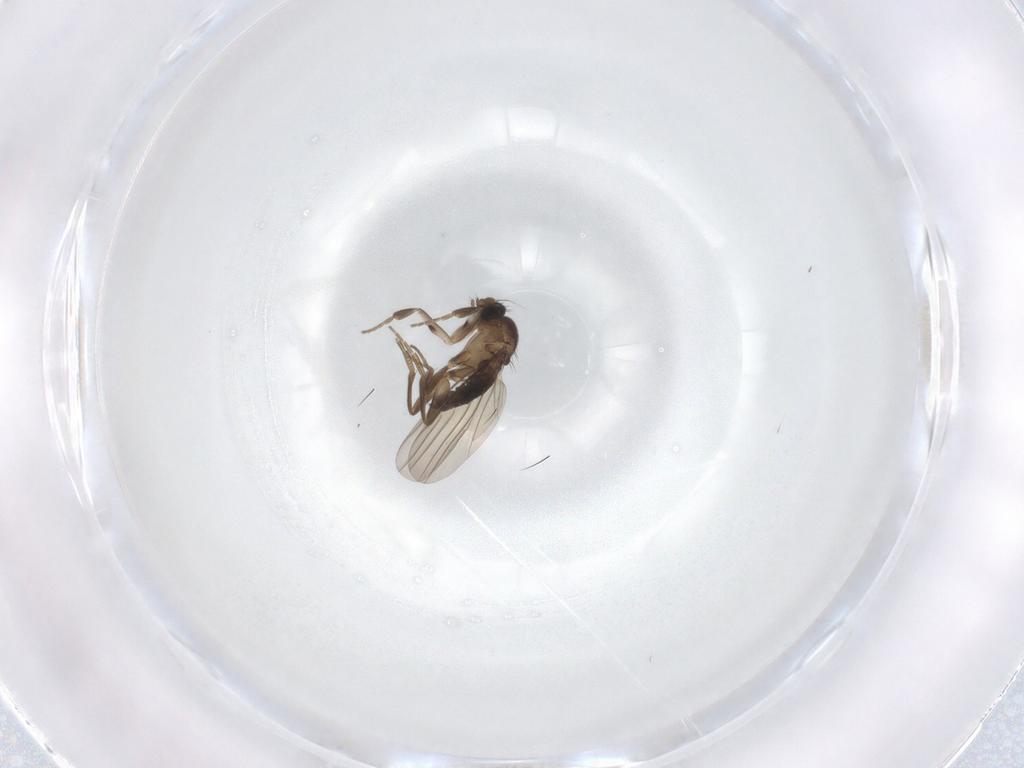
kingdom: Animalia
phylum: Arthropoda
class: Insecta
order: Diptera
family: Phoridae
